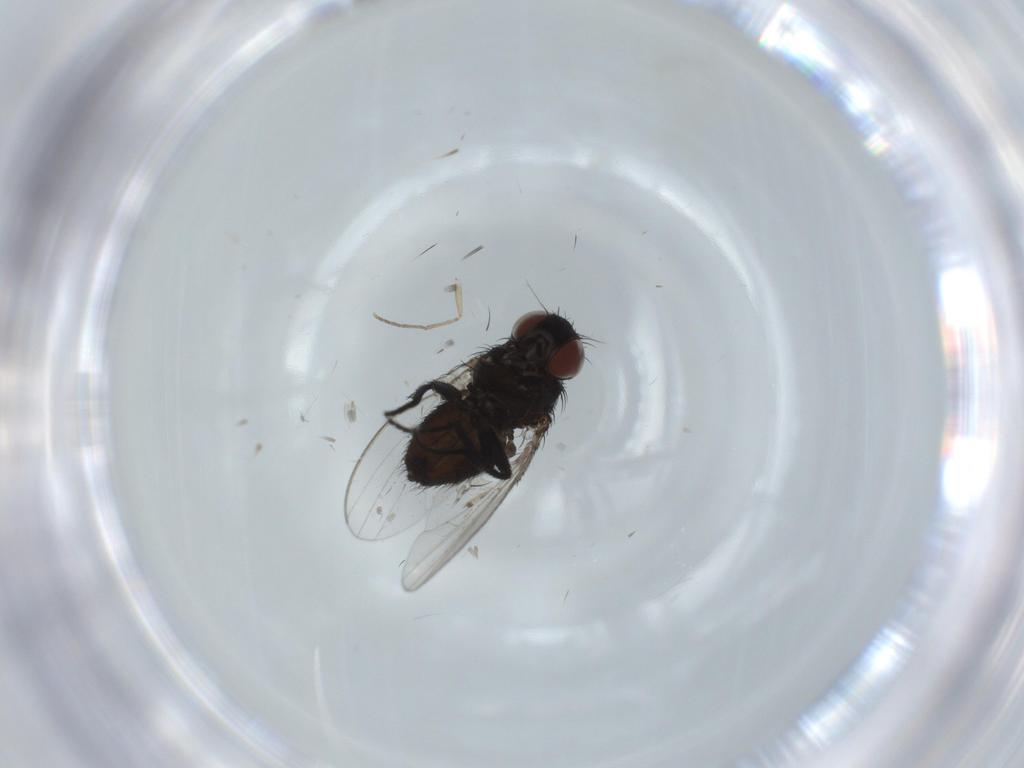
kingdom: Animalia
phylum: Arthropoda
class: Insecta
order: Diptera
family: Milichiidae
